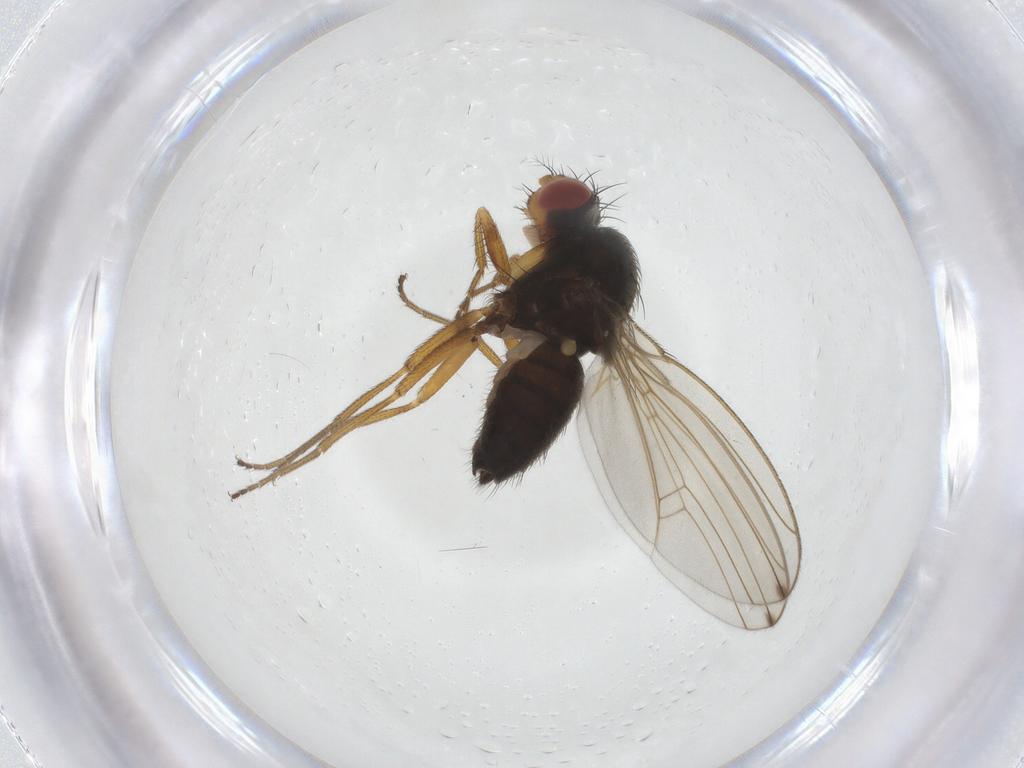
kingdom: Animalia
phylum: Arthropoda
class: Insecta
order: Diptera
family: Drosophilidae
